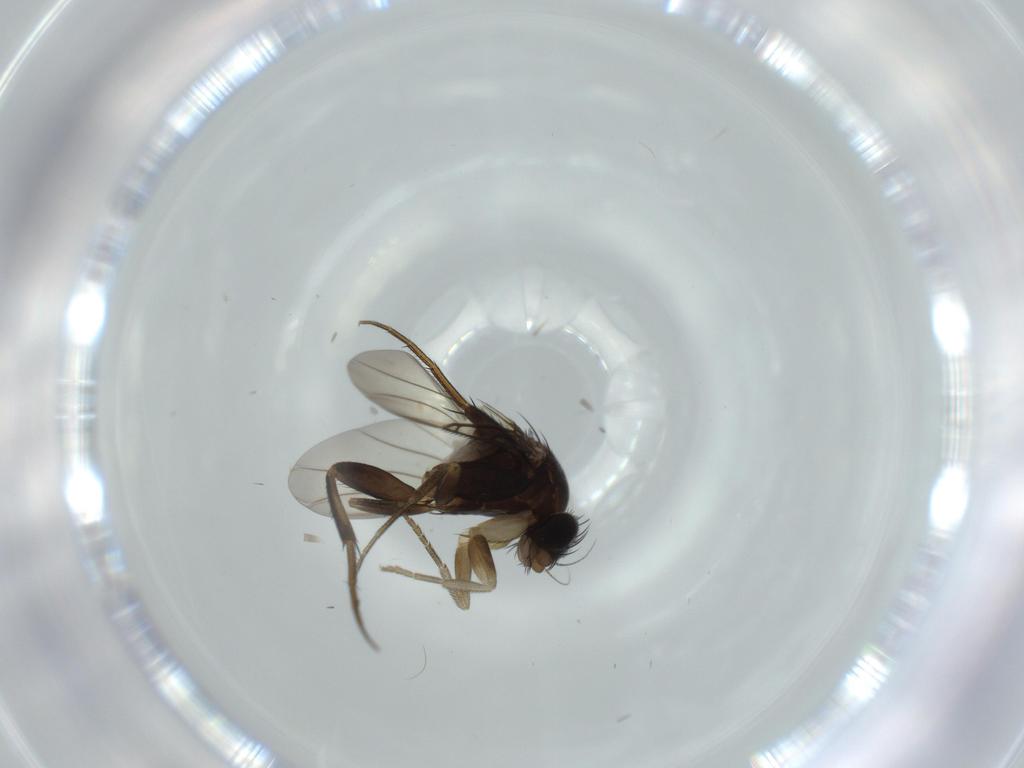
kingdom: Animalia
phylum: Arthropoda
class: Insecta
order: Diptera
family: Phoridae
